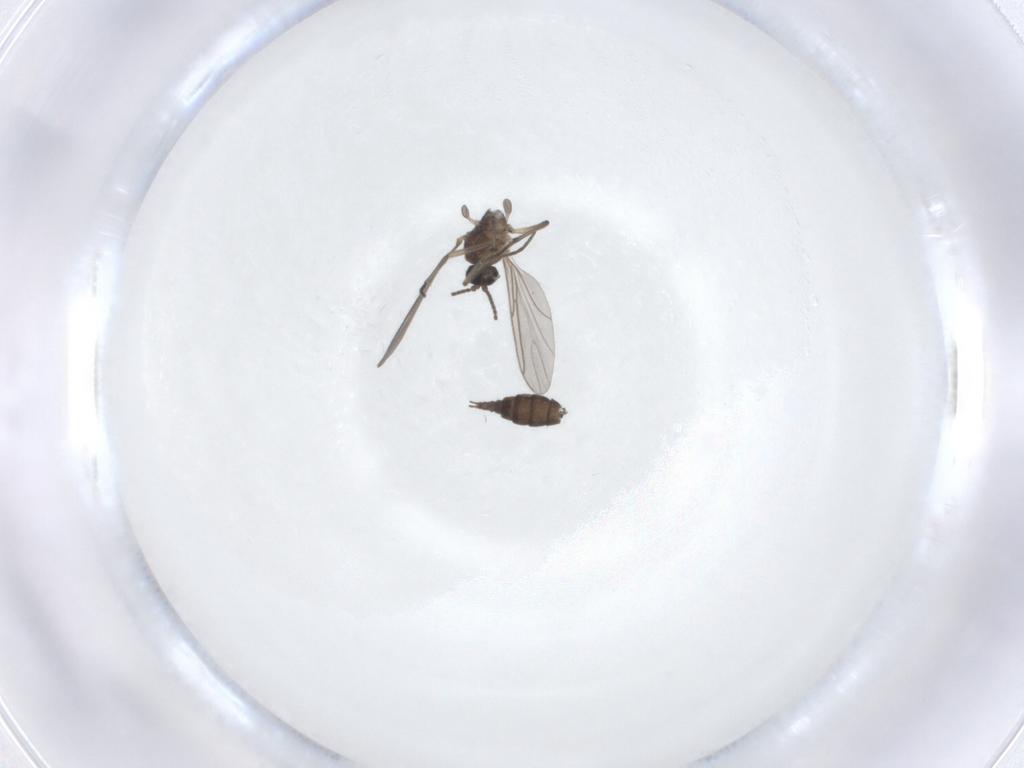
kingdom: Animalia
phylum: Arthropoda
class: Insecta
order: Diptera
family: Sciaridae
